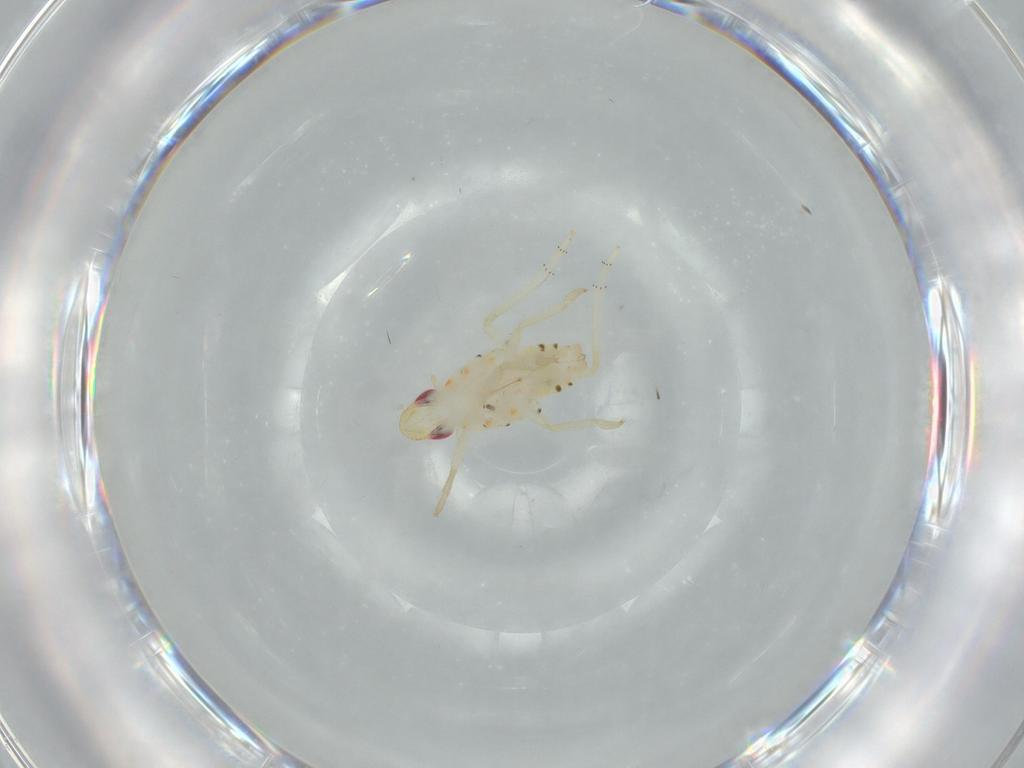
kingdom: Animalia
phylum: Arthropoda
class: Insecta
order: Hemiptera
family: Tropiduchidae
